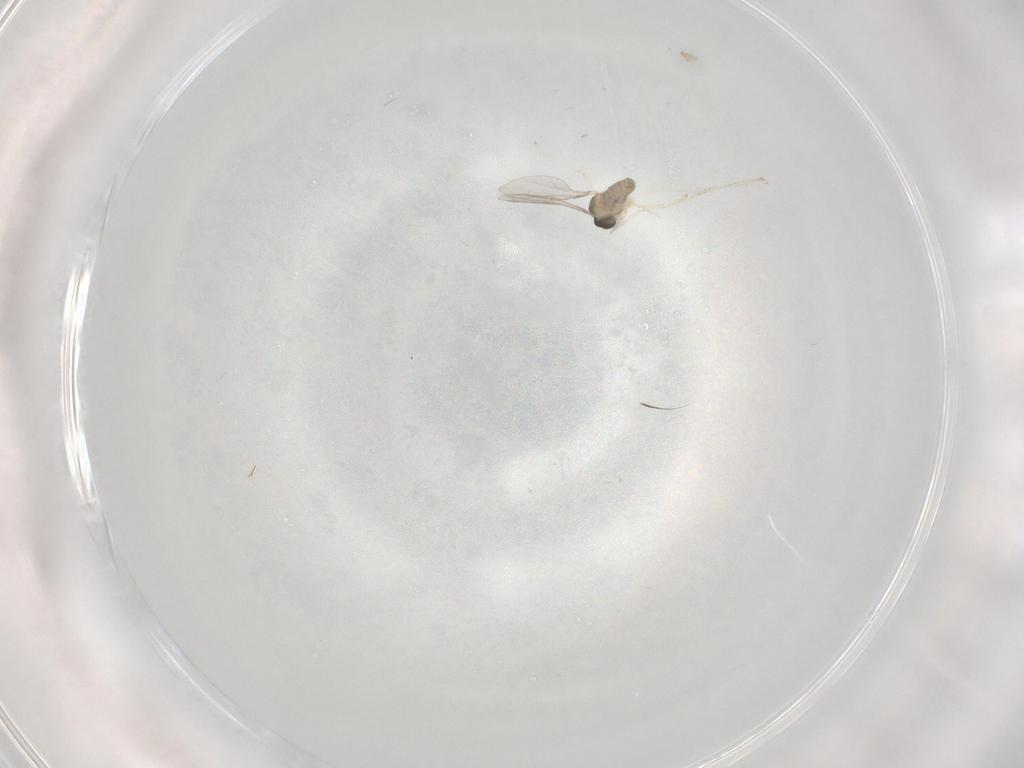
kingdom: Animalia
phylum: Arthropoda
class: Insecta
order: Diptera
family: Cecidomyiidae
